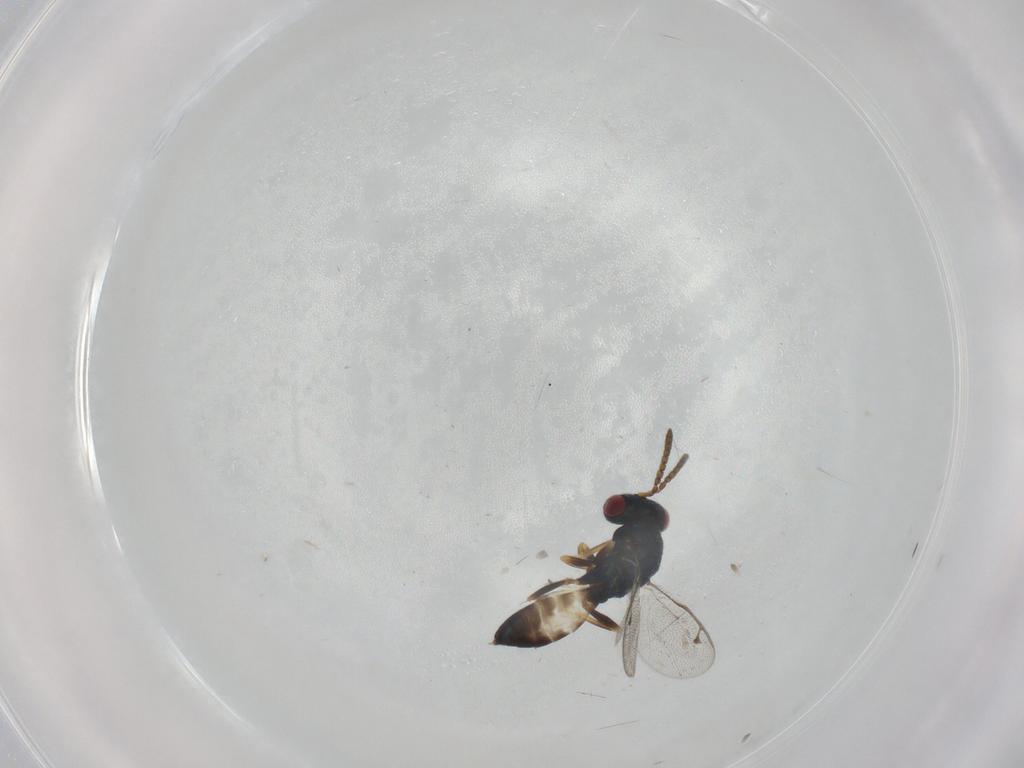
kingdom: Animalia
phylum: Arthropoda
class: Insecta
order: Hymenoptera
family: Pteromalidae
